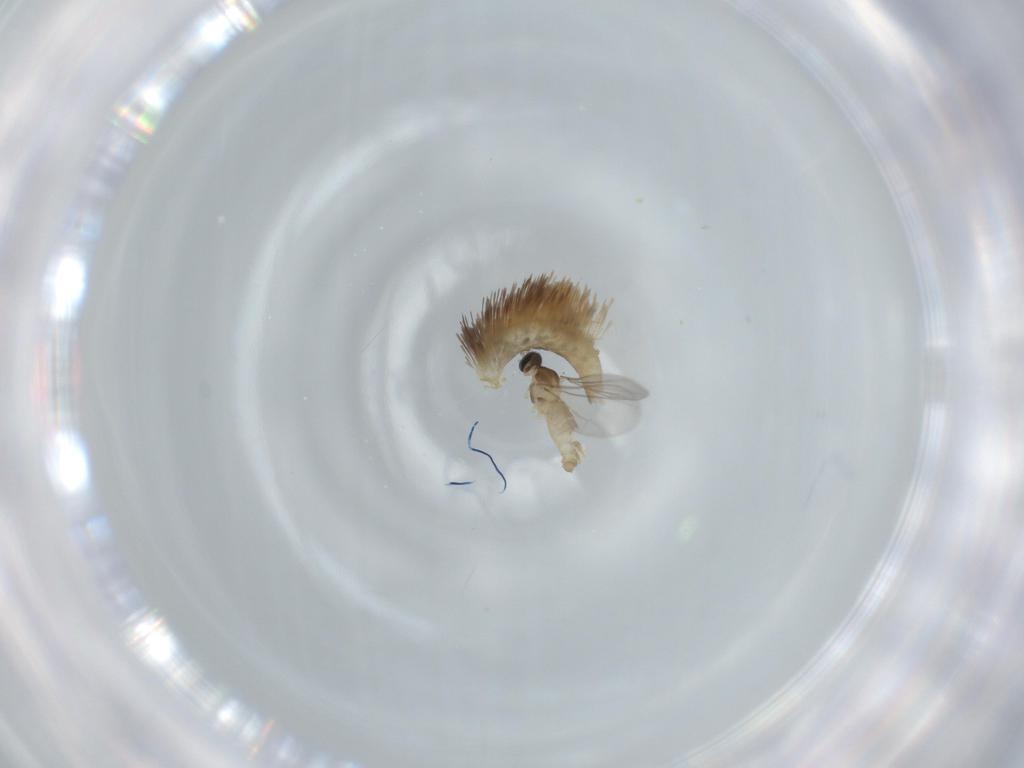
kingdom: Animalia
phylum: Arthropoda
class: Insecta
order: Diptera
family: Cecidomyiidae
